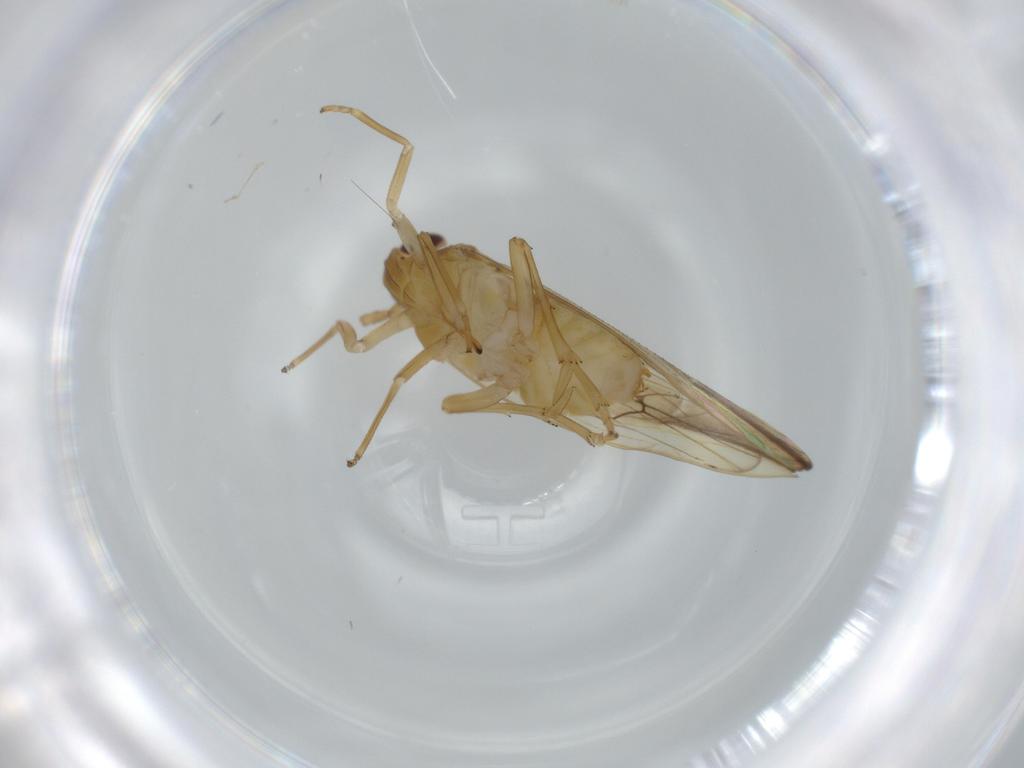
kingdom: Animalia
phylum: Arthropoda
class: Insecta
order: Hemiptera
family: Delphacidae
